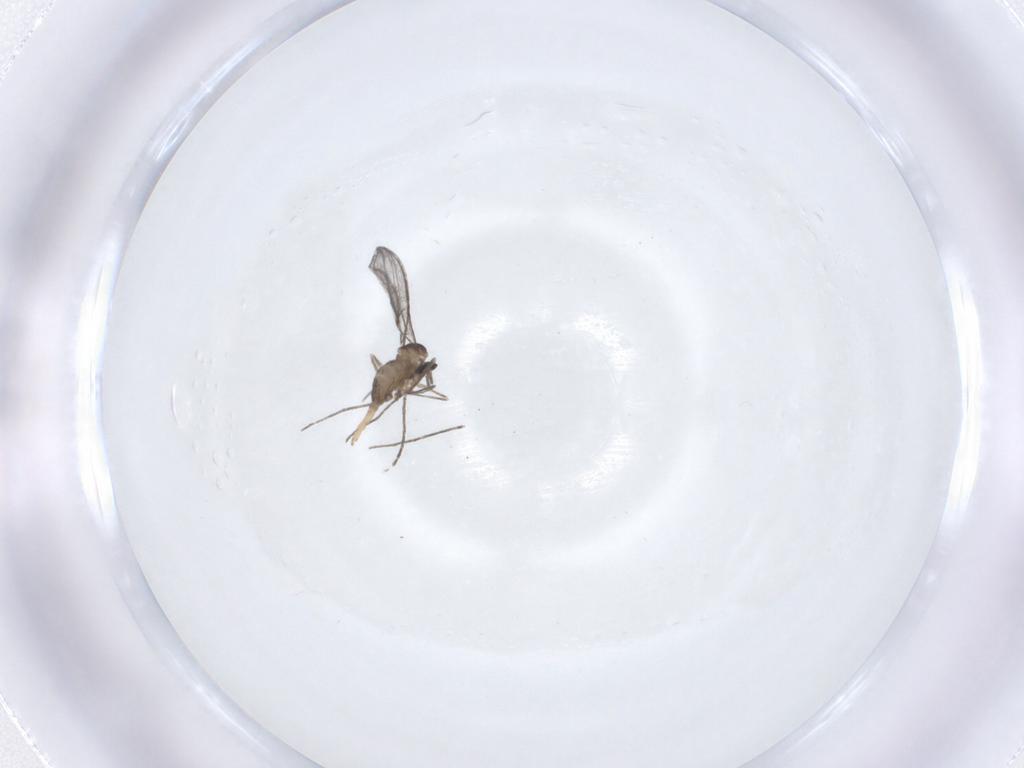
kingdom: Animalia
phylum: Arthropoda
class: Insecta
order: Diptera
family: Cecidomyiidae
